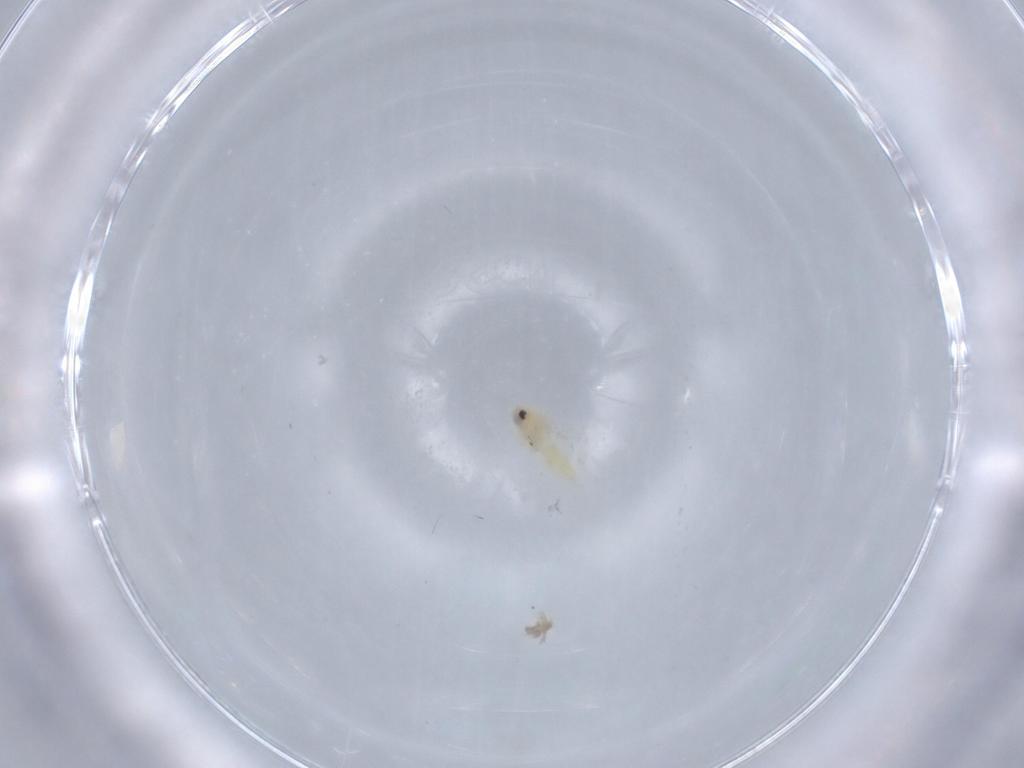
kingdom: Animalia
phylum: Arthropoda
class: Insecta
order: Hemiptera
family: Aleyrodidae
